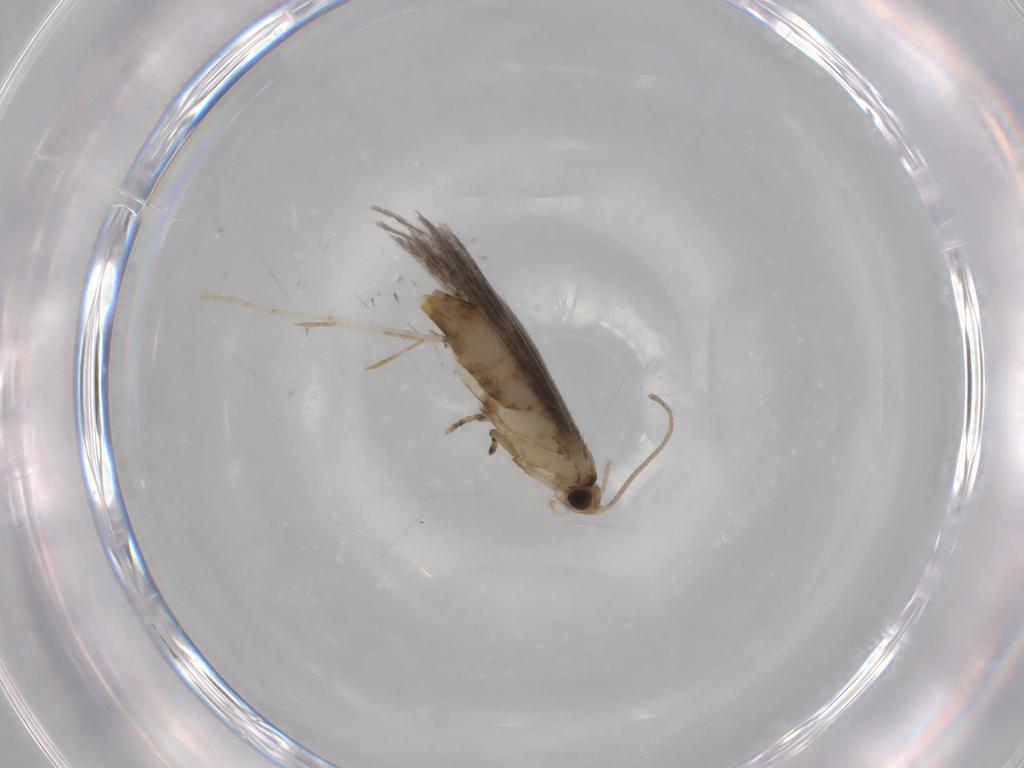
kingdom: Animalia
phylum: Arthropoda
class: Insecta
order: Lepidoptera
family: Tineidae
